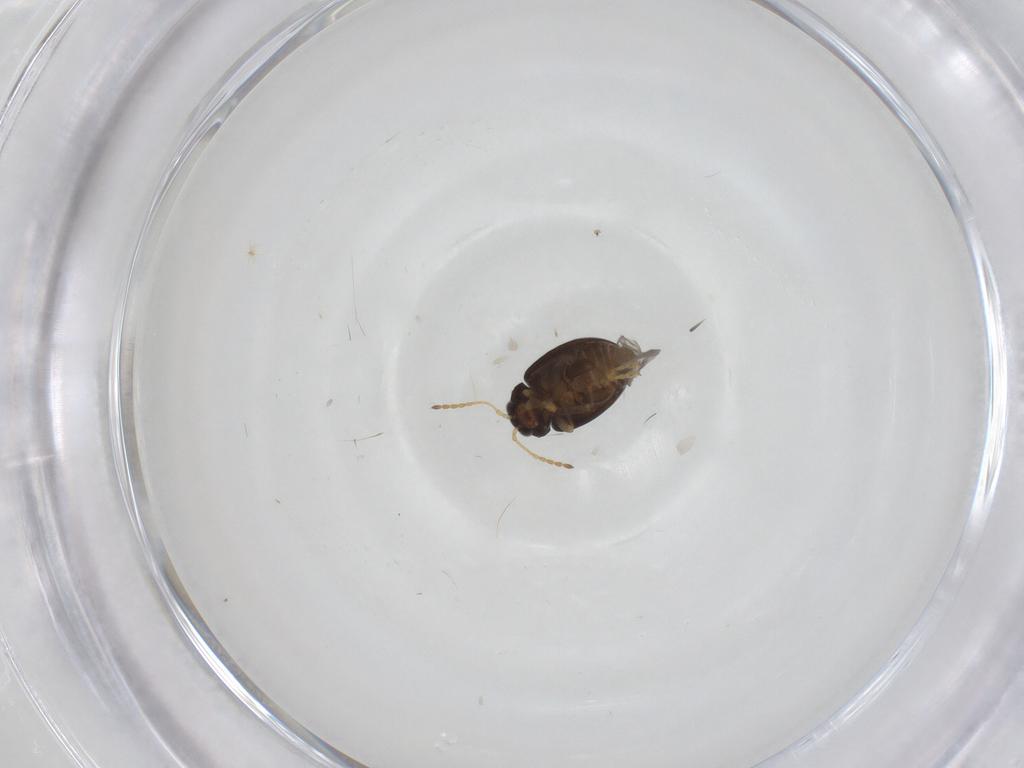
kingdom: Animalia
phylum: Arthropoda
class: Insecta
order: Coleoptera
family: Chrysomelidae
